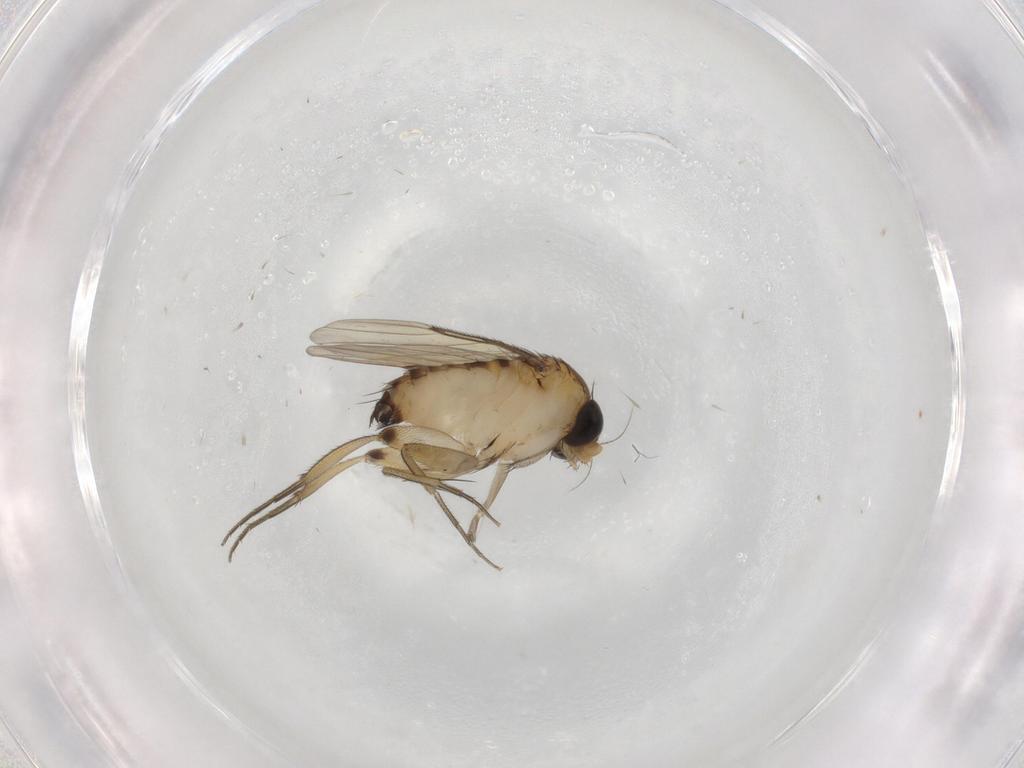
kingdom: Animalia
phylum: Arthropoda
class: Insecta
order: Diptera
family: Phoridae
